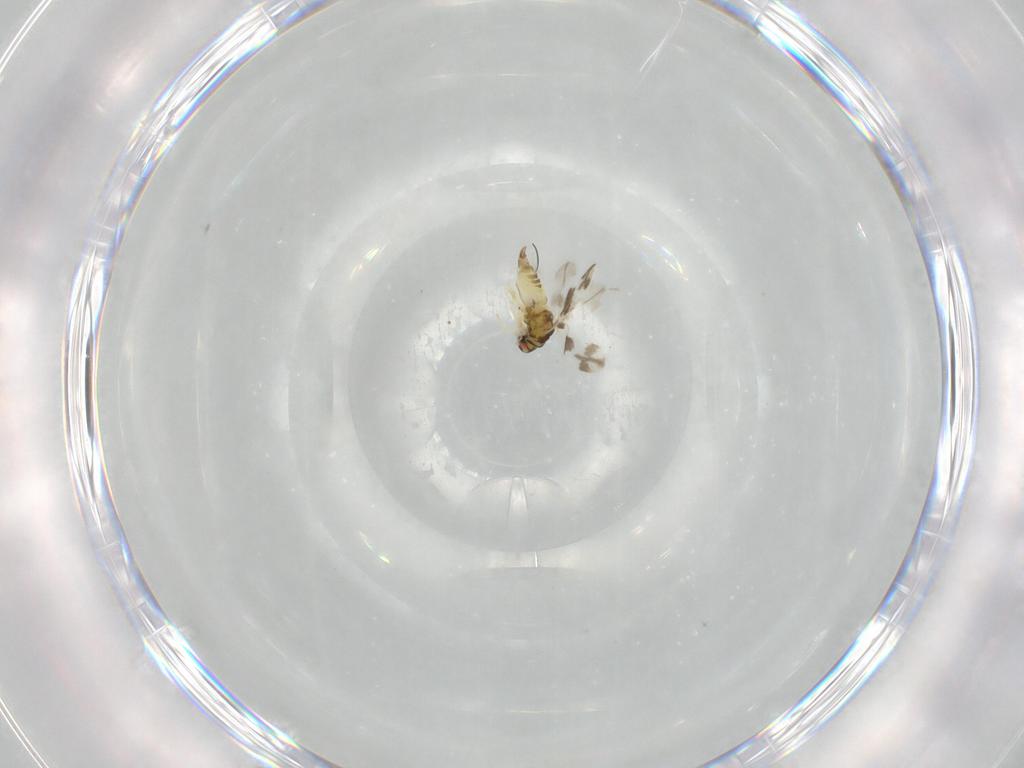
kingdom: Animalia
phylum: Arthropoda
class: Insecta
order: Hemiptera
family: Aleyrodidae
